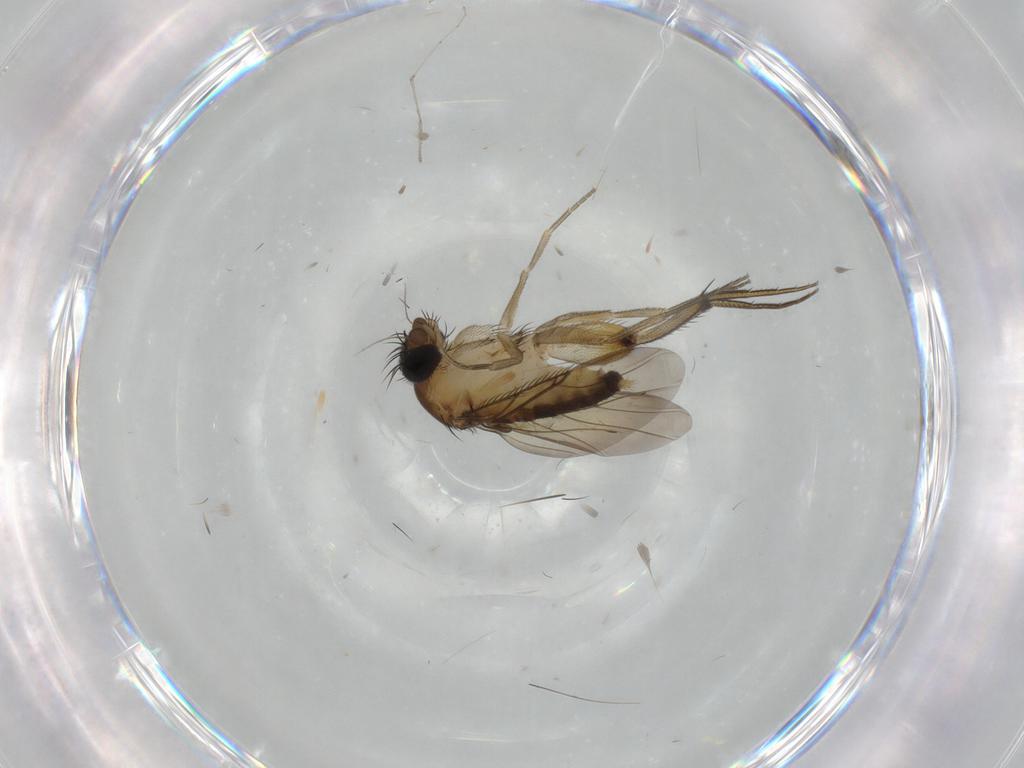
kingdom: Animalia
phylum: Arthropoda
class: Insecta
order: Diptera
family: Phoridae
